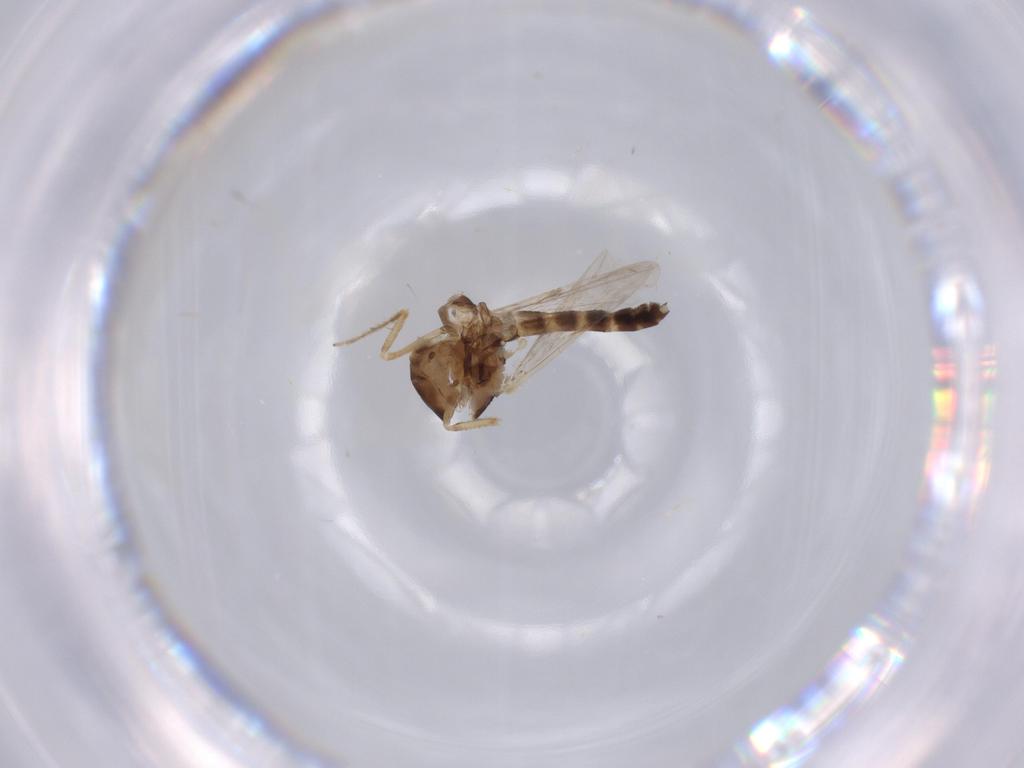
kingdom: Animalia
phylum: Arthropoda
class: Insecta
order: Diptera
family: Ceratopogonidae
